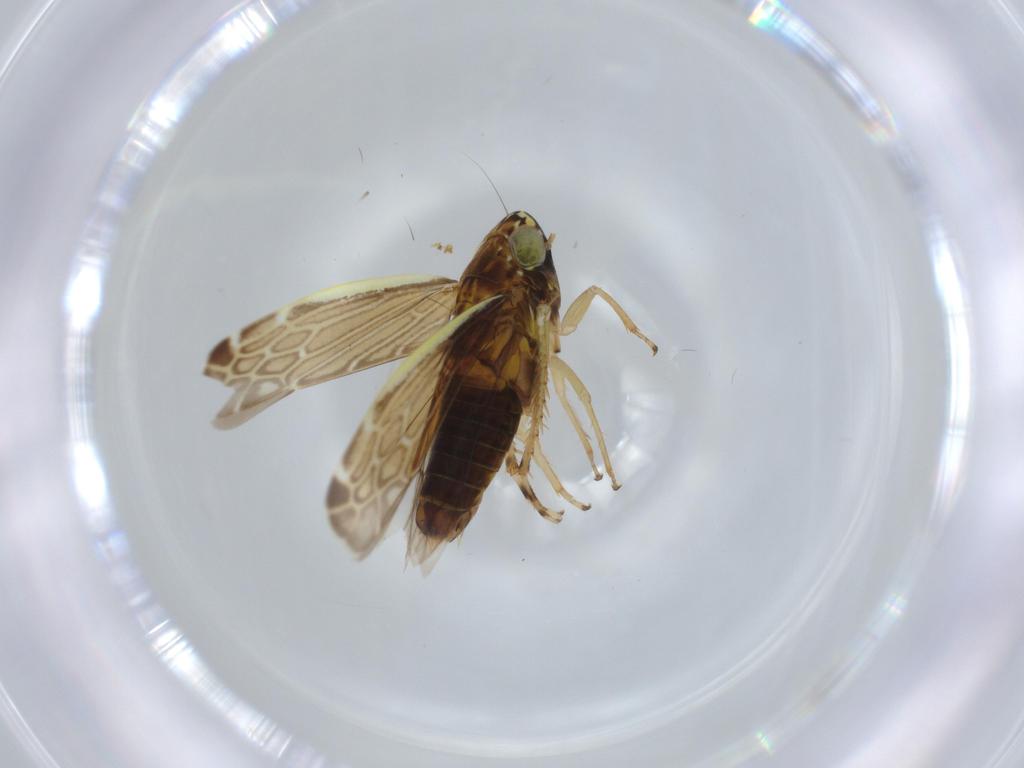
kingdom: Animalia
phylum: Arthropoda
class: Insecta
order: Hemiptera
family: Cicadellidae
